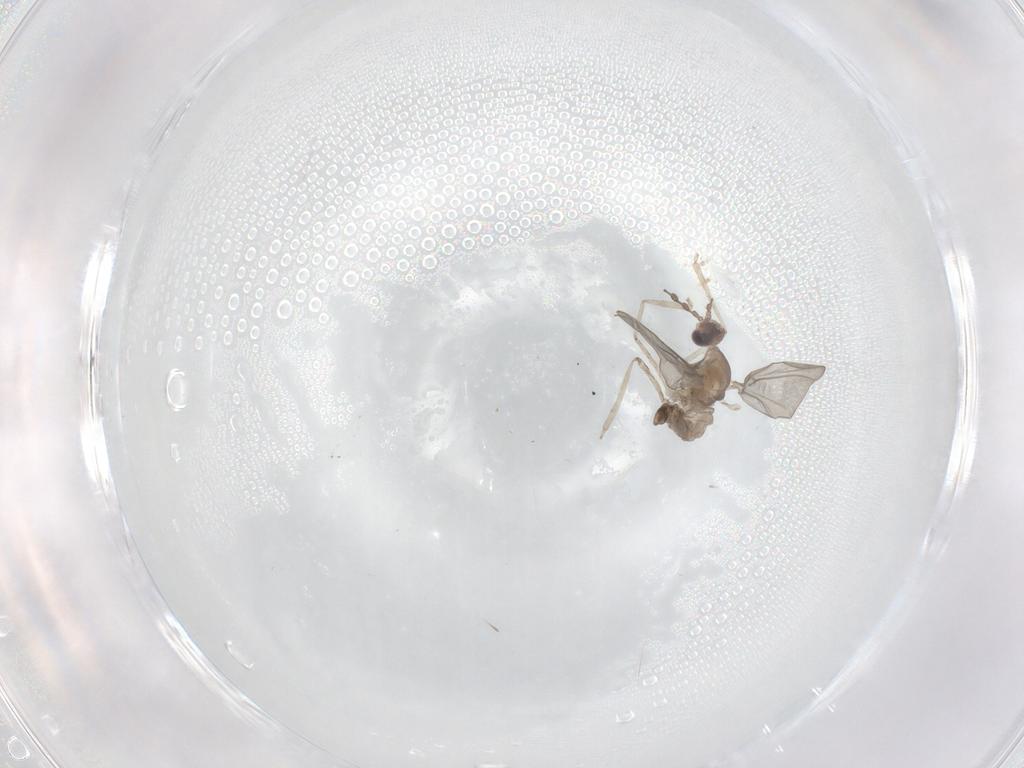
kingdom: Animalia
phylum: Arthropoda
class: Insecta
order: Diptera
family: Chironomidae
